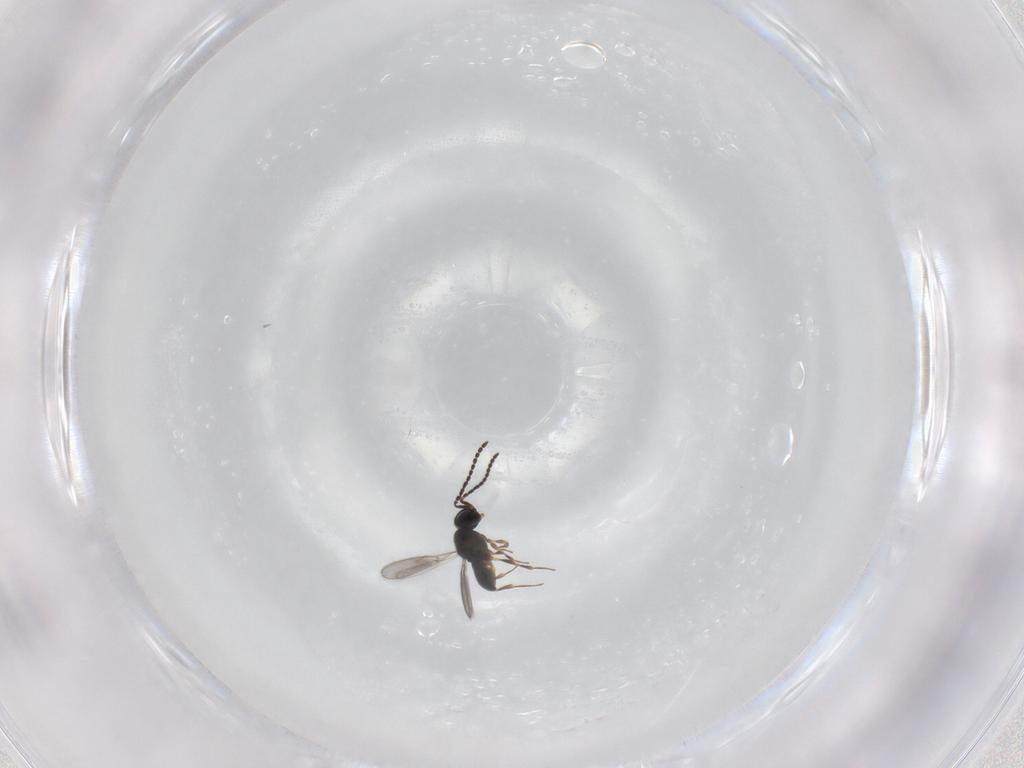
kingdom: Animalia
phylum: Arthropoda
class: Insecta
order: Hymenoptera
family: Scelionidae
